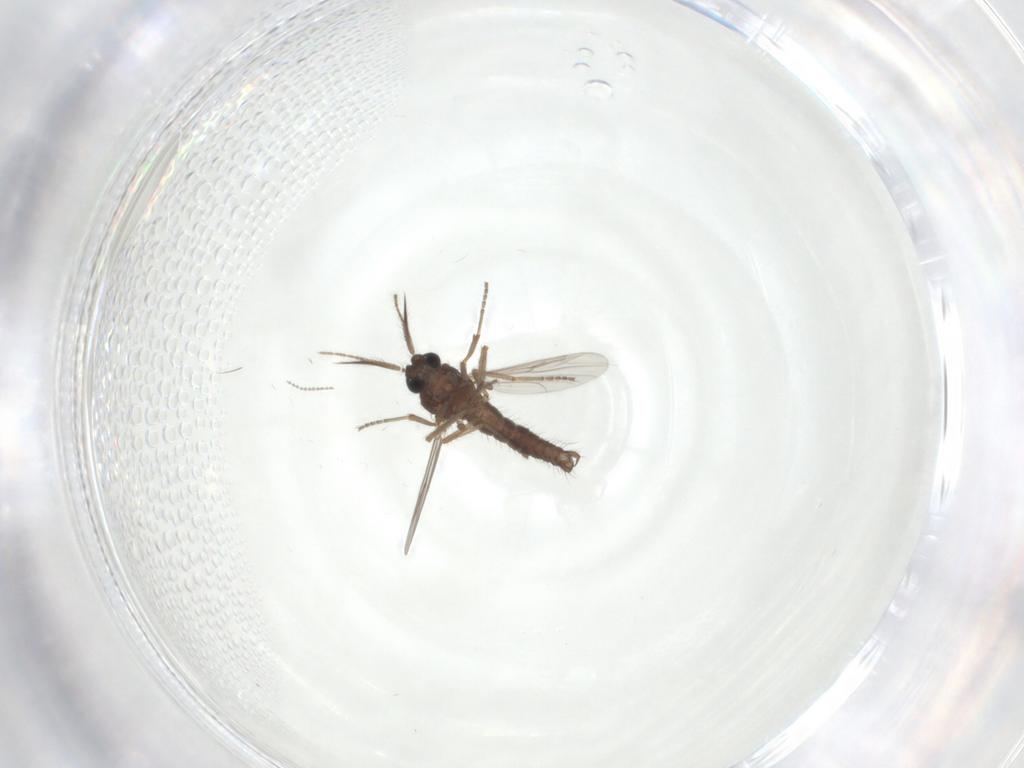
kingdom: Animalia
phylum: Arthropoda
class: Insecta
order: Diptera
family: Cecidomyiidae
